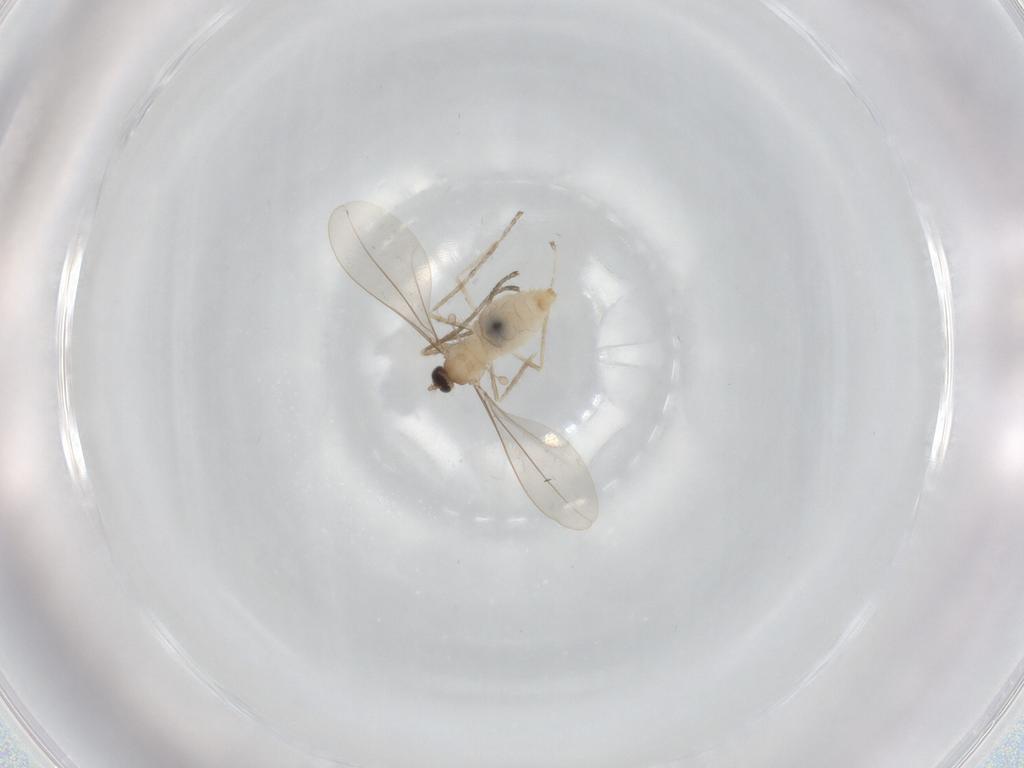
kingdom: Animalia
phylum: Arthropoda
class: Insecta
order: Diptera
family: Cecidomyiidae
